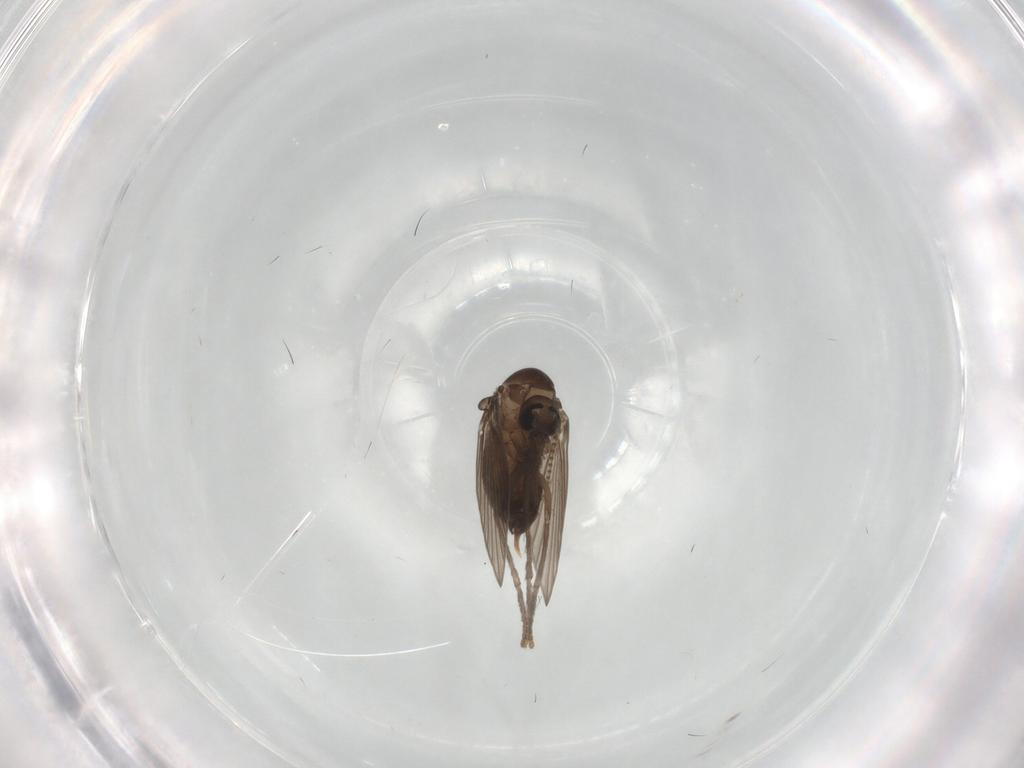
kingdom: Animalia
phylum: Arthropoda
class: Insecta
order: Diptera
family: Psychodidae
